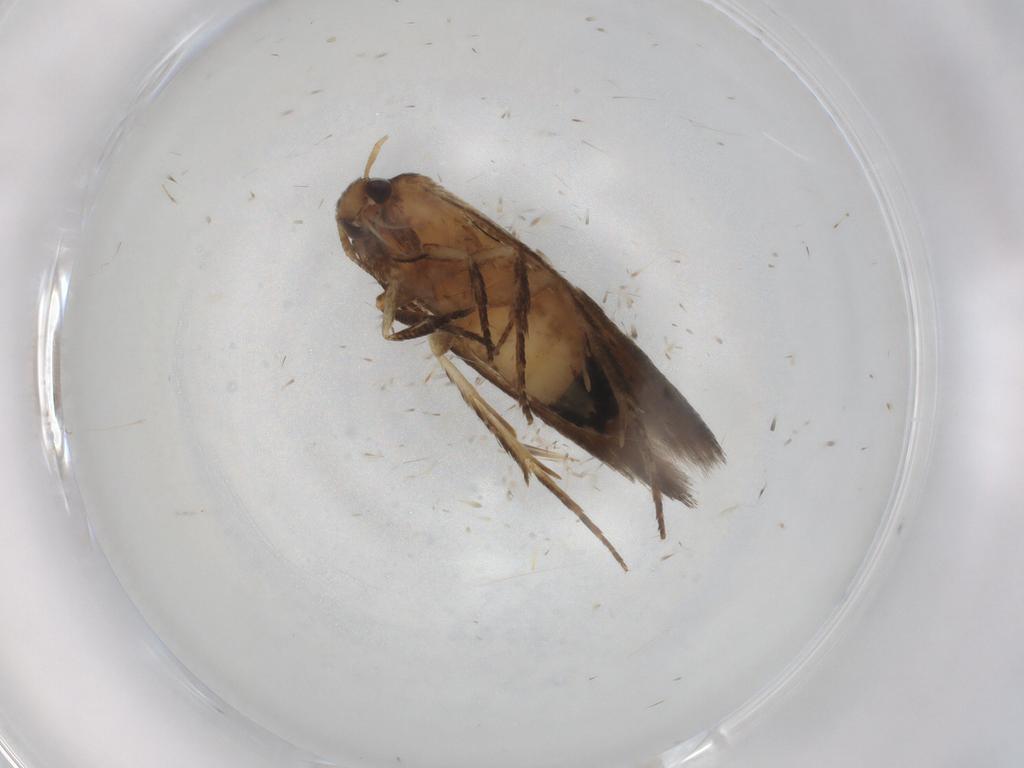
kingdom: Animalia
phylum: Arthropoda
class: Insecta
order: Lepidoptera
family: Cosmopterigidae
